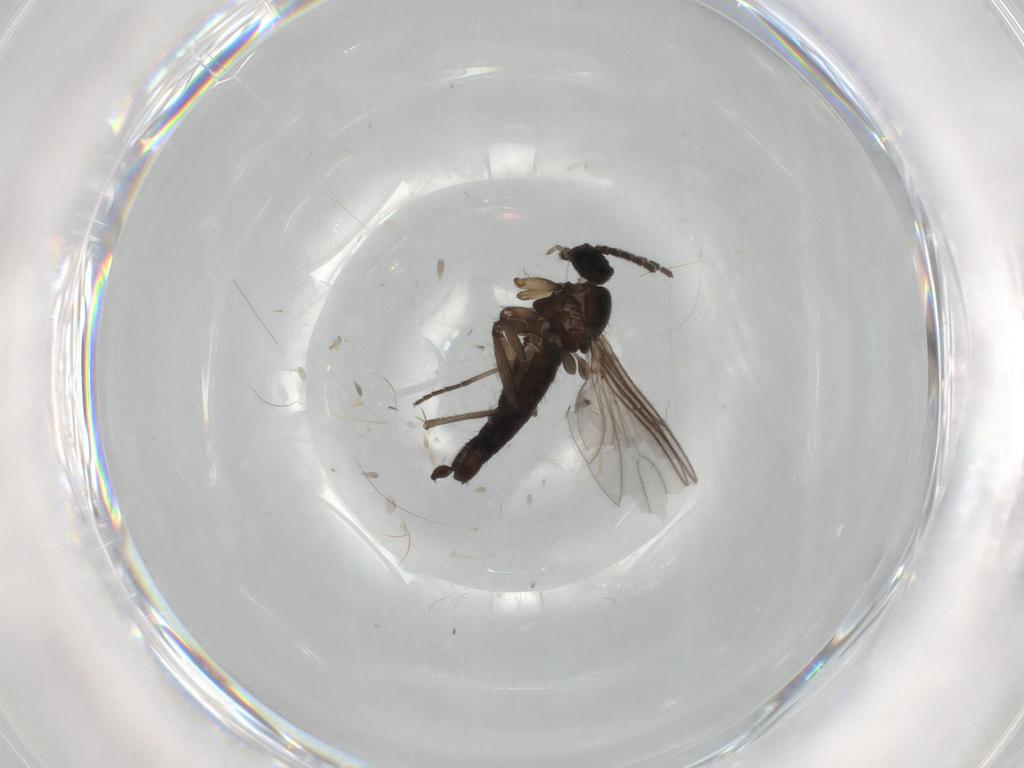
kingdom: Animalia
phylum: Arthropoda
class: Insecta
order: Diptera
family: Sciaridae
